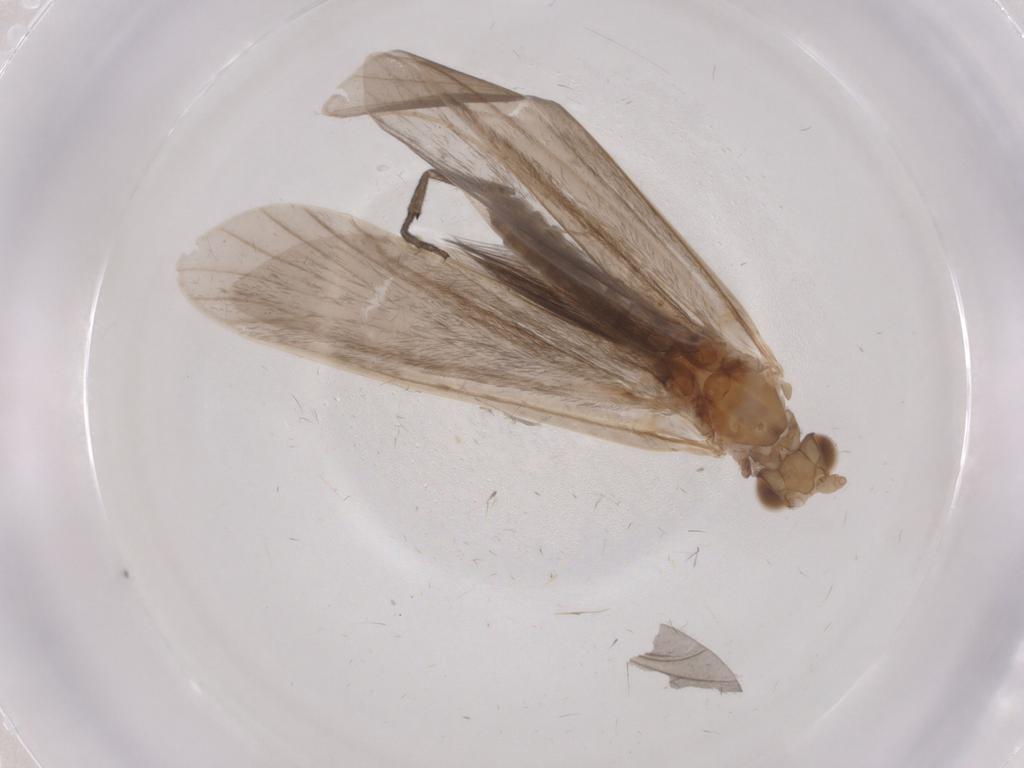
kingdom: Animalia
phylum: Arthropoda
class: Insecta
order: Trichoptera
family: Leptoceridae
